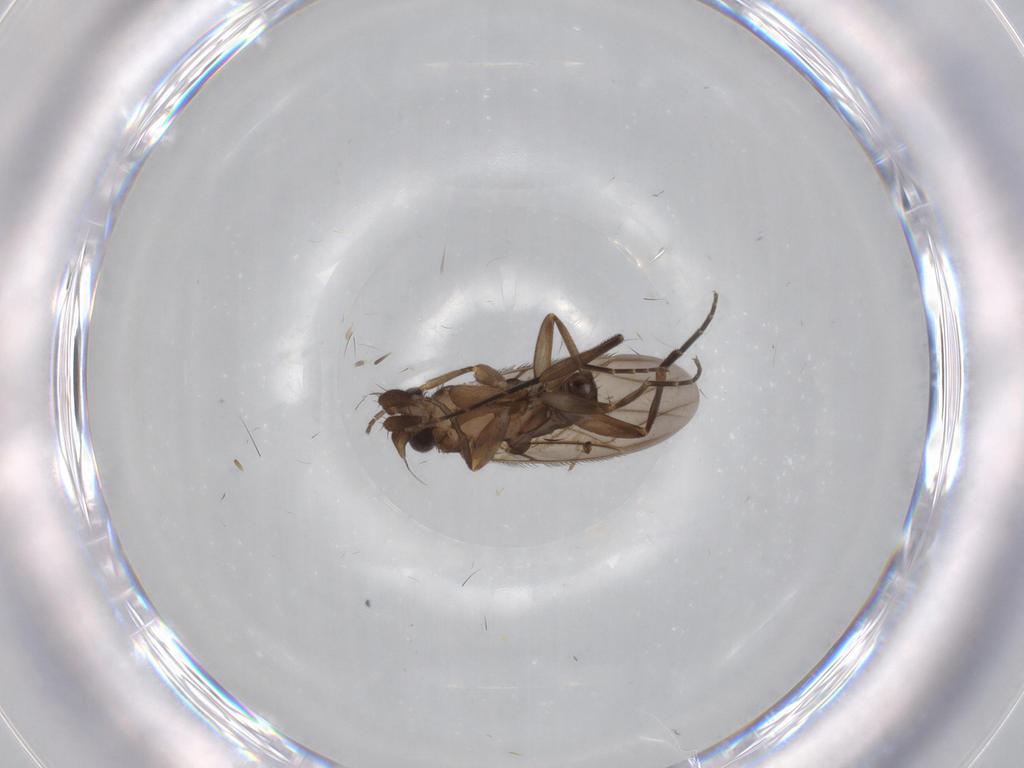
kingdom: Animalia
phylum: Arthropoda
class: Insecta
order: Diptera
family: Phoridae
